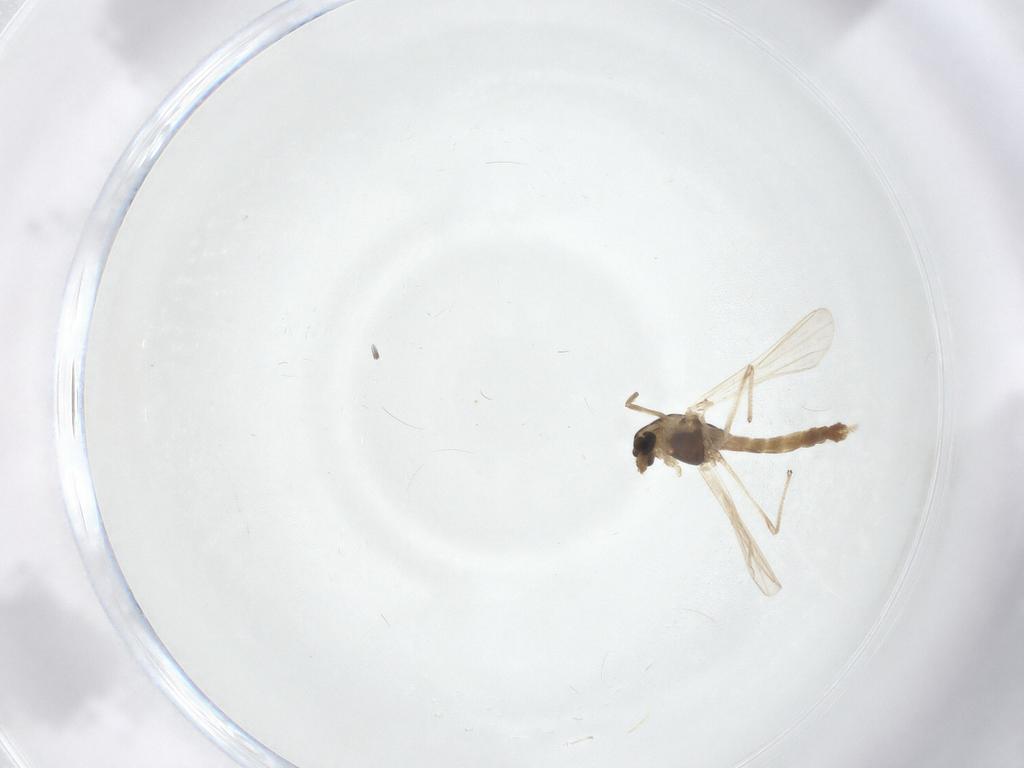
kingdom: Animalia
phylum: Arthropoda
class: Insecta
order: Diptera
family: Chironomidae
